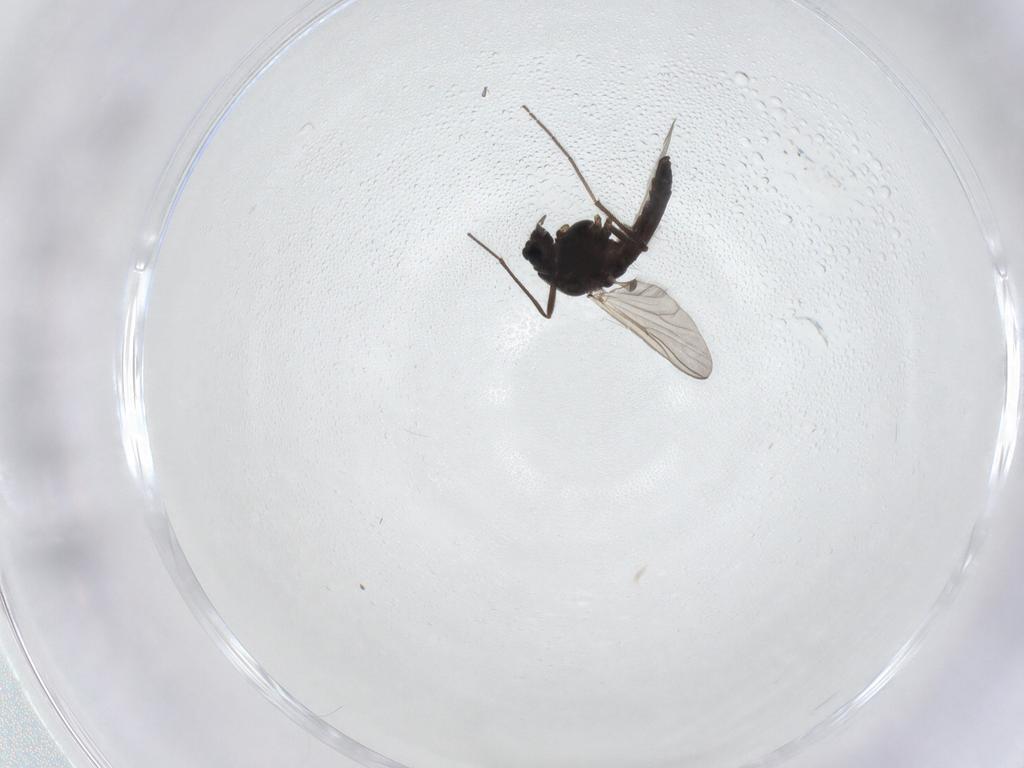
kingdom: Animalia
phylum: Arthropoda
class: Insecta
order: Diptera
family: Chironomidae
